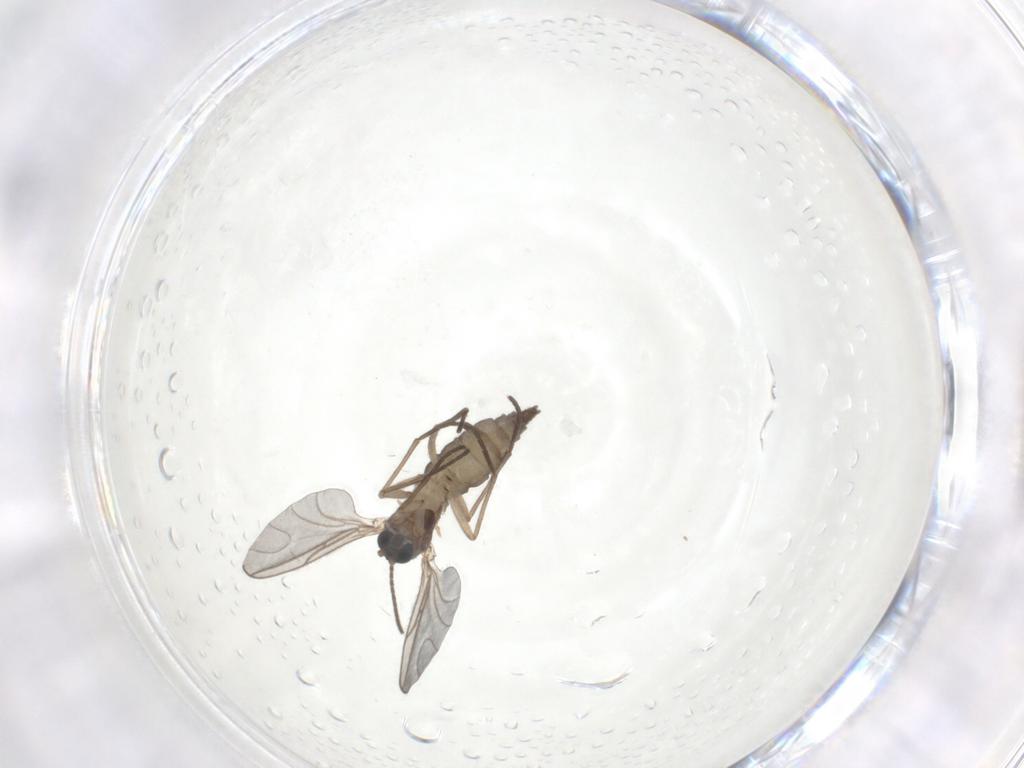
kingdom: Animalia
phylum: Arthropoda
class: Insecta
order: Diptera
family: Sciaridae
